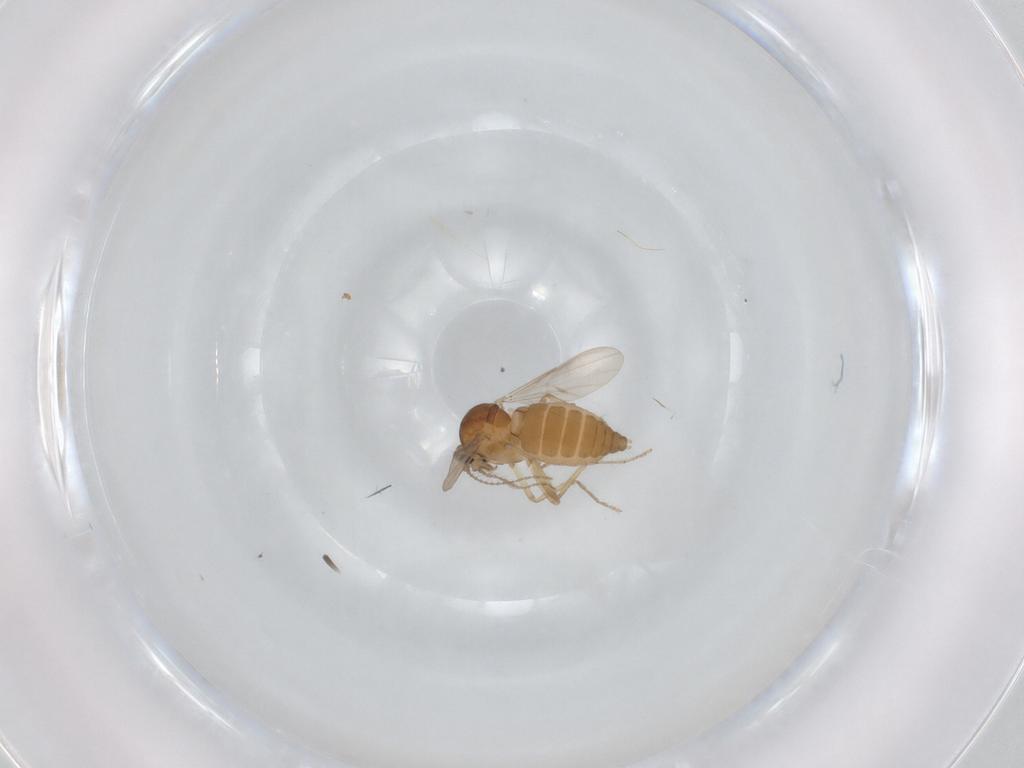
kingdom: Animalia
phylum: Arthropoda
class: Insecta
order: Diptera
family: Ceratopogonidae
